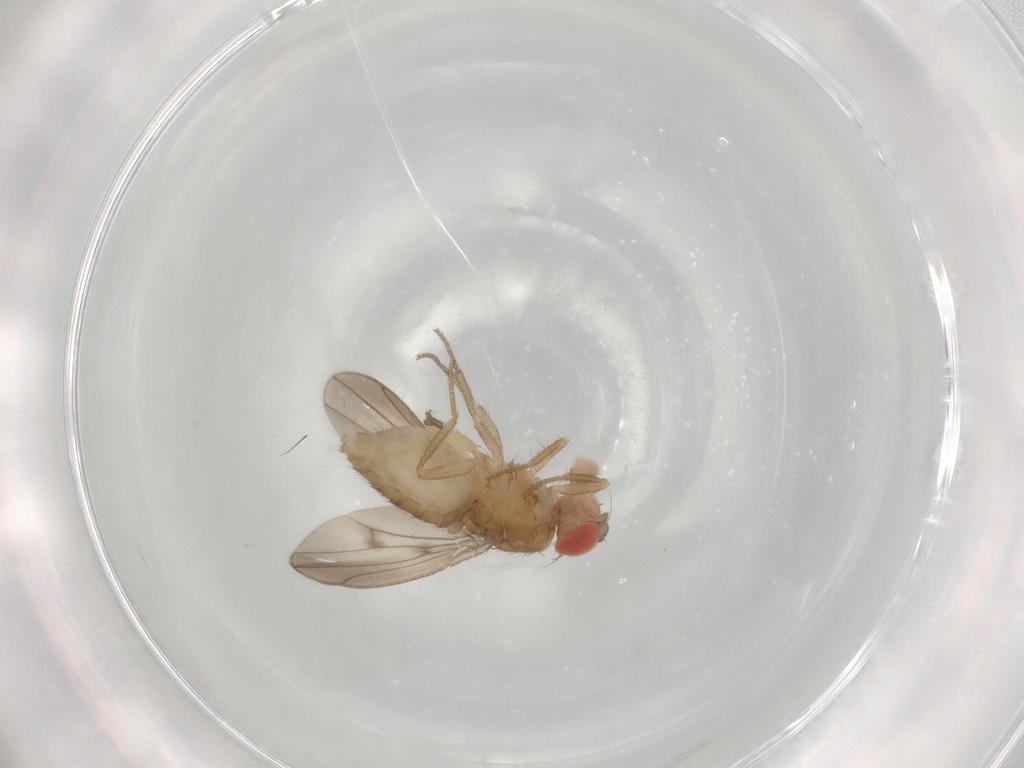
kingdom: Animalia
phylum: Arthropoda
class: Insecta
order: Diptera
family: Drosophilidae
